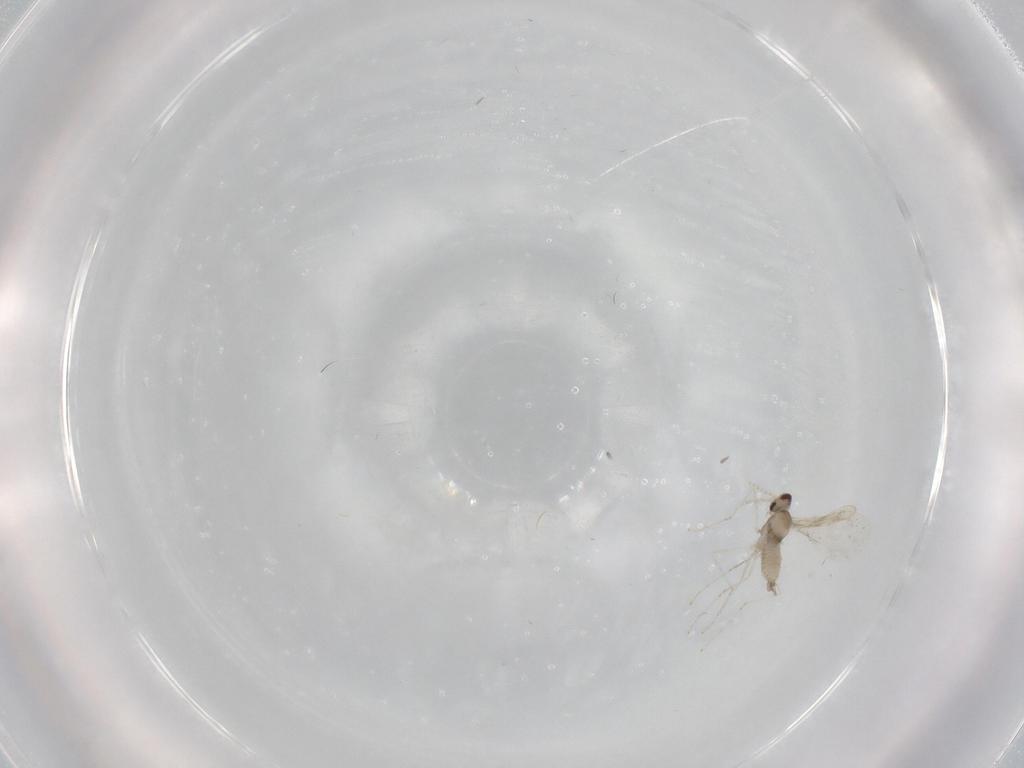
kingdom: Animalia
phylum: Arthropoda
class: Insecta
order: Diptera
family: Cecidomyiidae
